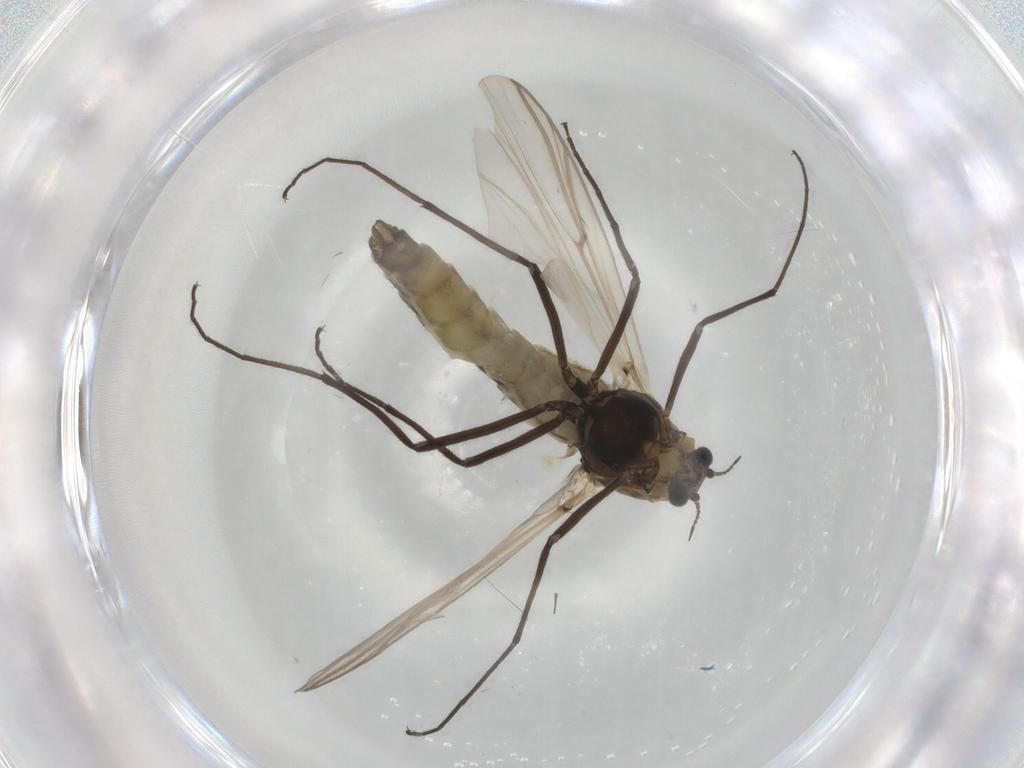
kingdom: Animalia
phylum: Arthropoda
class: Insecta
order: Diptera
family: Chironomidae
